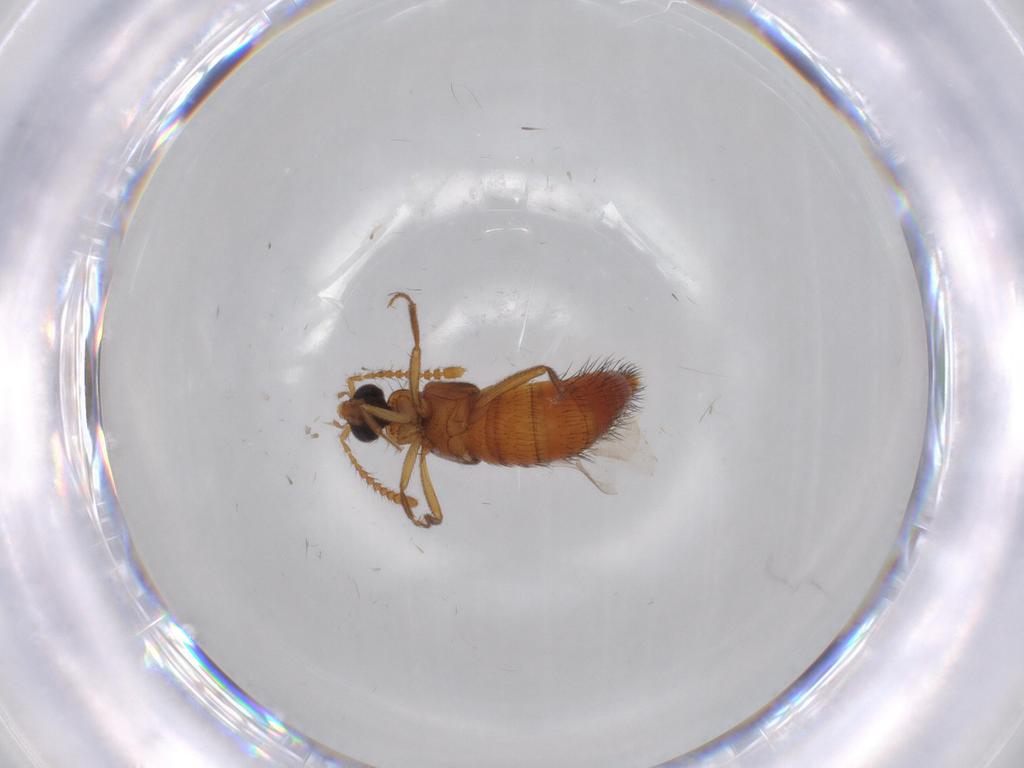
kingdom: Animalia
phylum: Arthropoda
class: Insecta
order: Coleoptera
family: Staphylinidae
